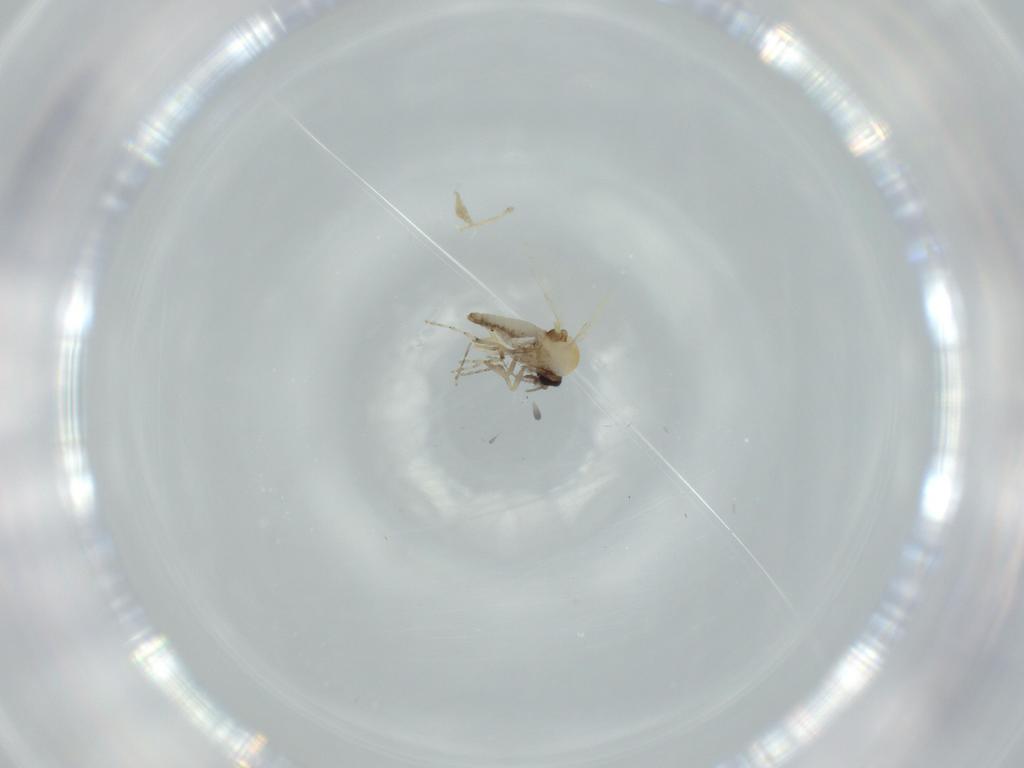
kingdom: Animalia
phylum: Arthropoda
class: Insecta
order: Diptera
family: Ceratopogonidae
